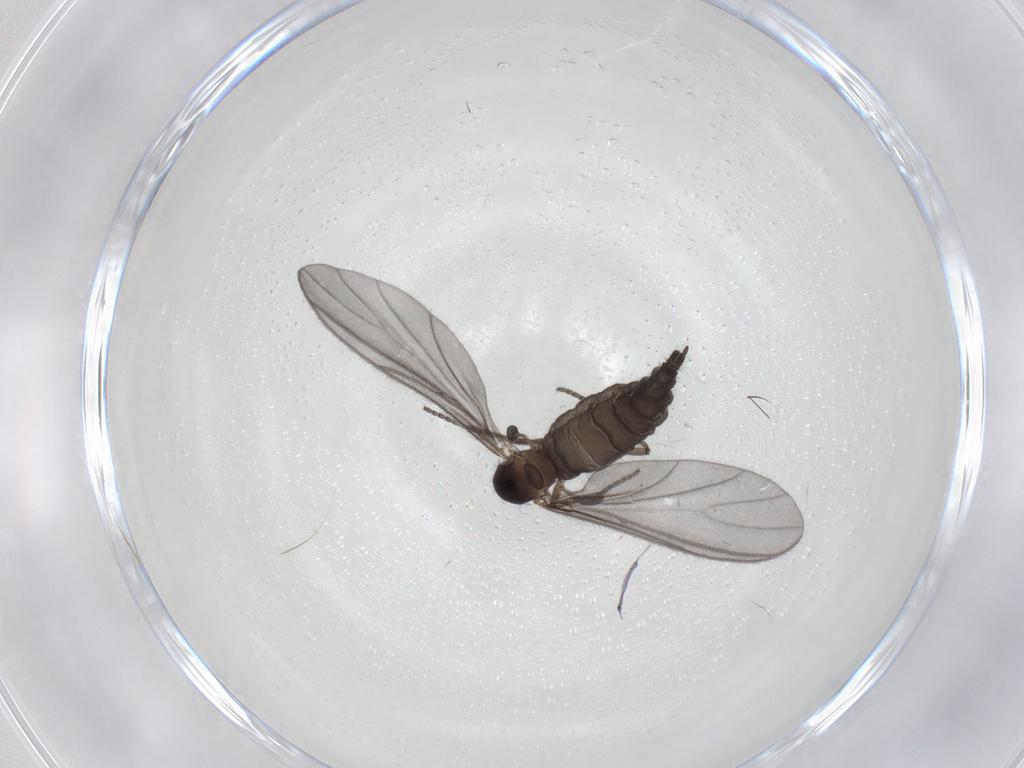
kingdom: Animalia
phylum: Arthropoda
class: Insecta
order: Diptera
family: Sciaridae
